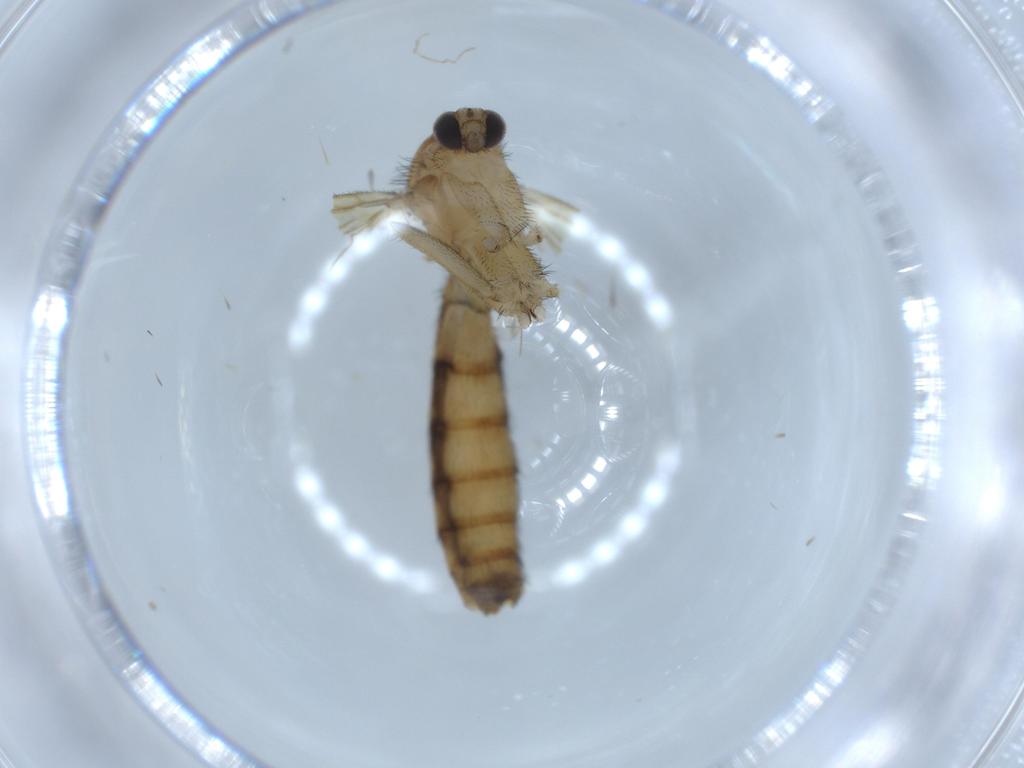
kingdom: Animalia
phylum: Arthropoda
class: Insecta
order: Diptera
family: Keroplatidae
